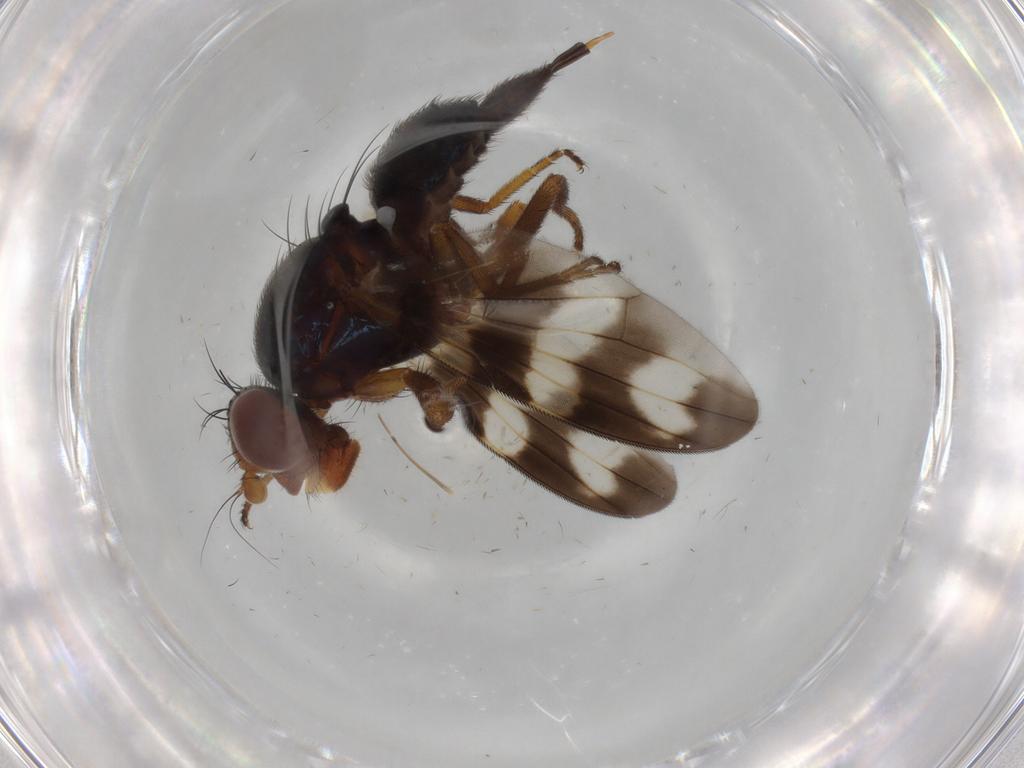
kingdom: Animalia
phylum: Arthropoda
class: Insecta
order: Diptera
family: Ulidiidae
